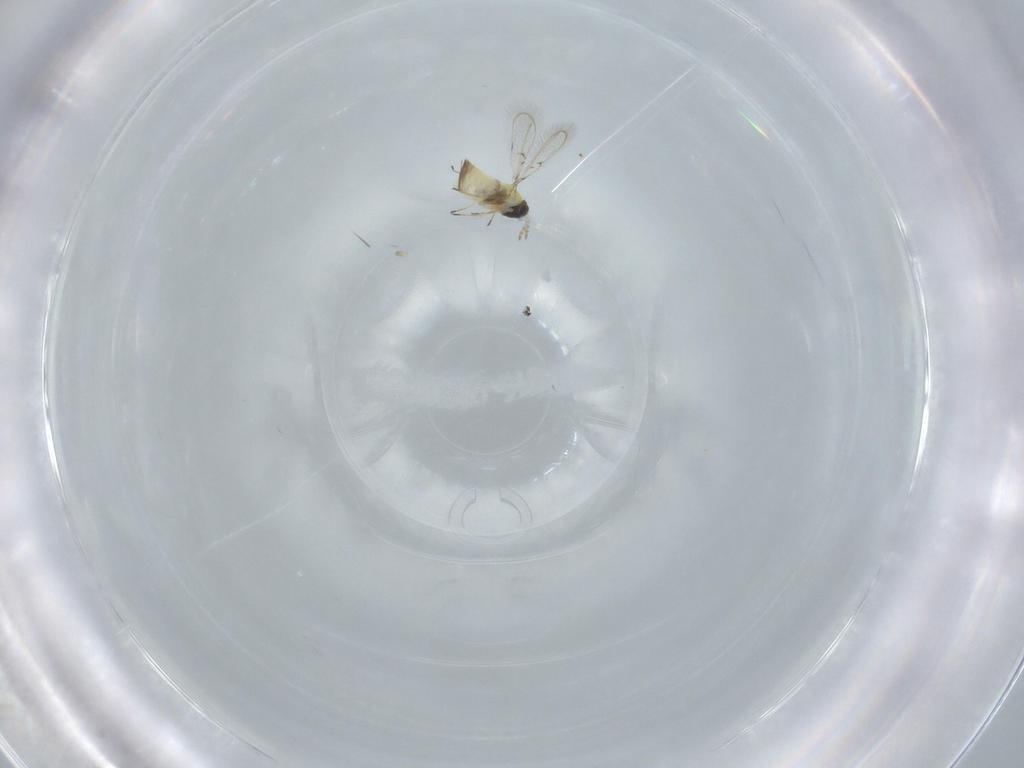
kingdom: Animalia
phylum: Arthropoda
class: Insecta
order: Hymenoptera
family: Trichogrammatidae
